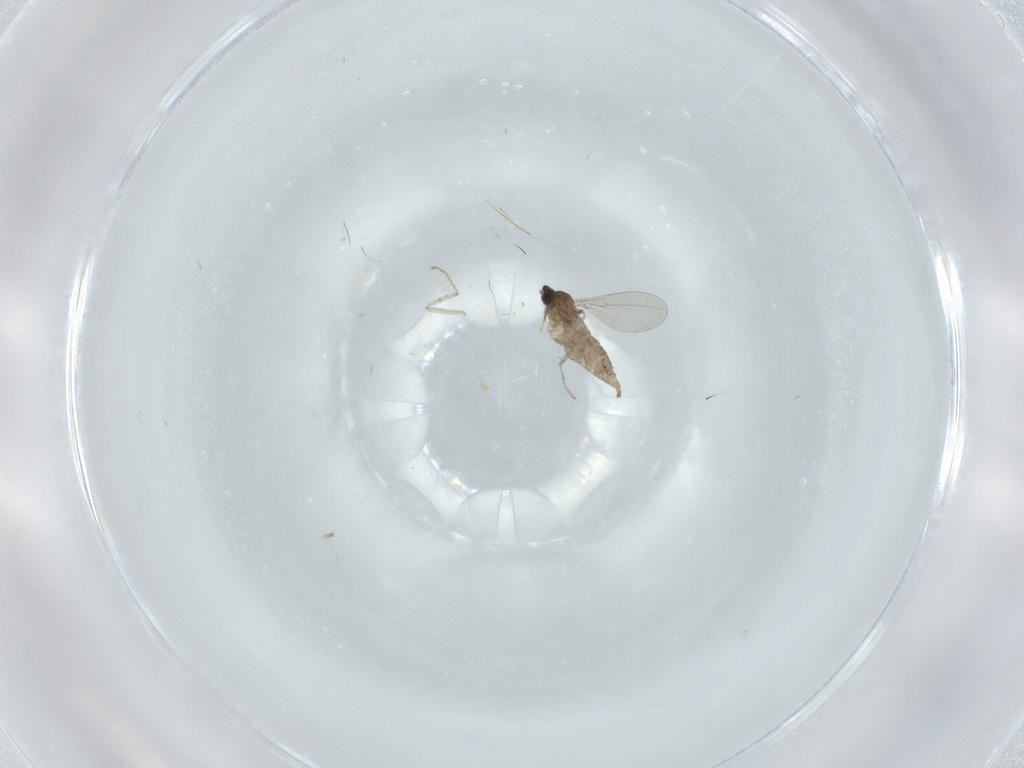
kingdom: Animalia
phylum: Arthropoda
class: Insecta
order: Diptera
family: Cecidomyiidae
